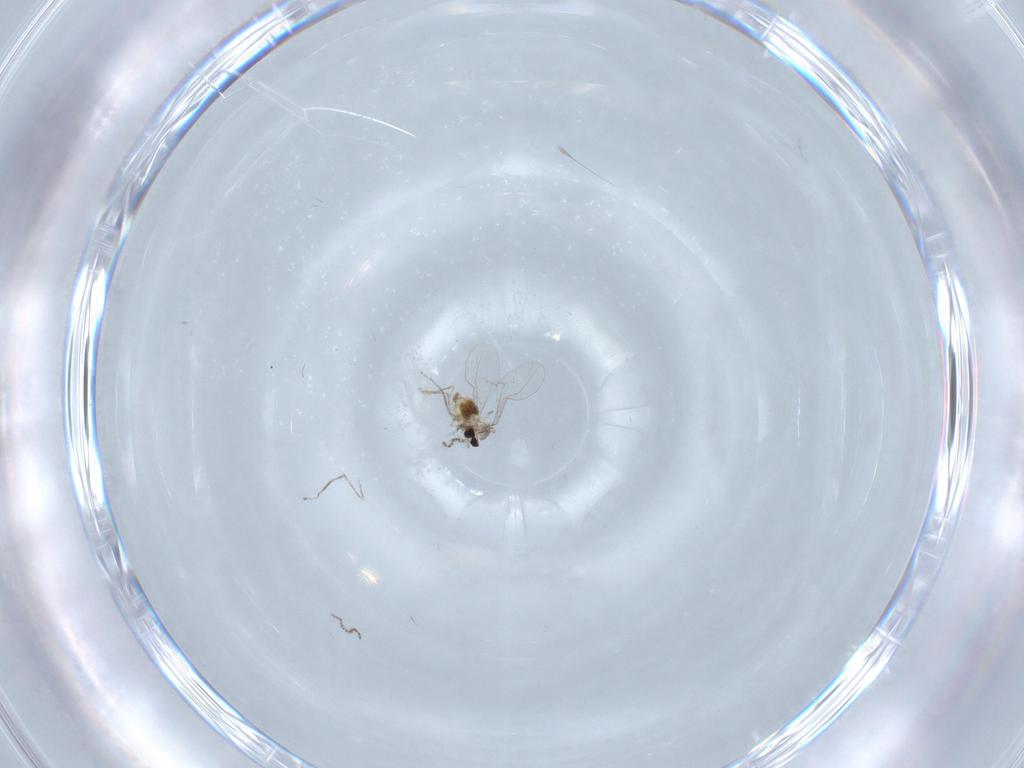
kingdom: Animalia
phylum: Arthropoda
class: Insecta
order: Diptera
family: Cecidomyiidae
